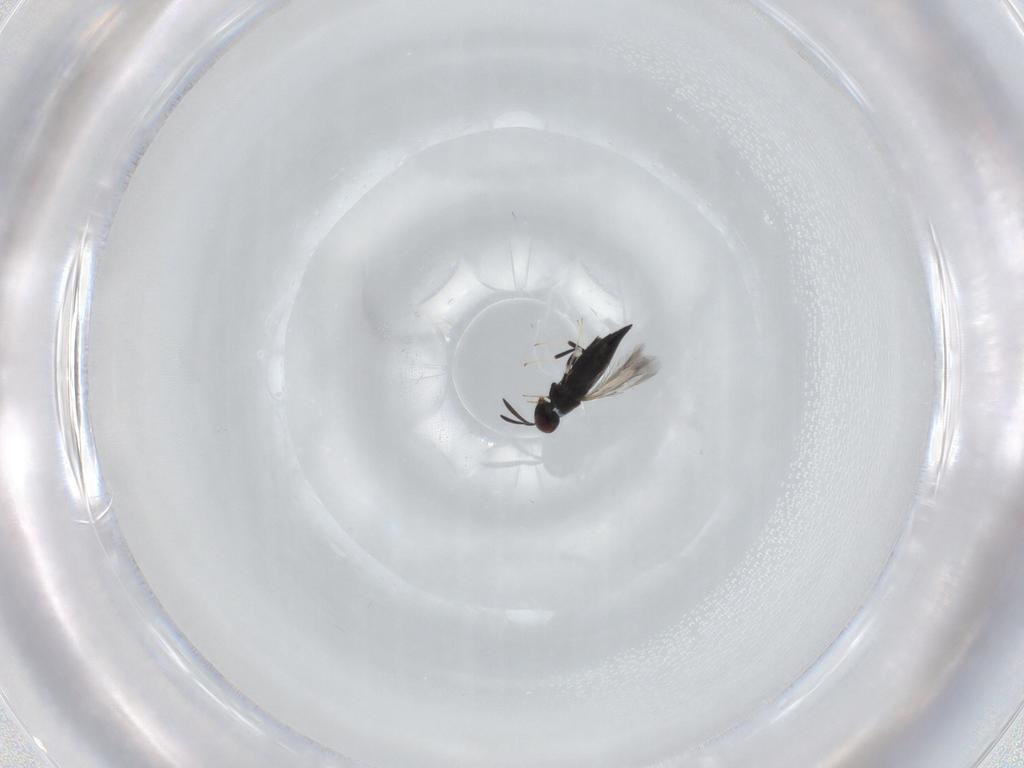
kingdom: Animalia
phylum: Arthropoda
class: Insecta
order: Hymenoptera
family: Signiphoridae
